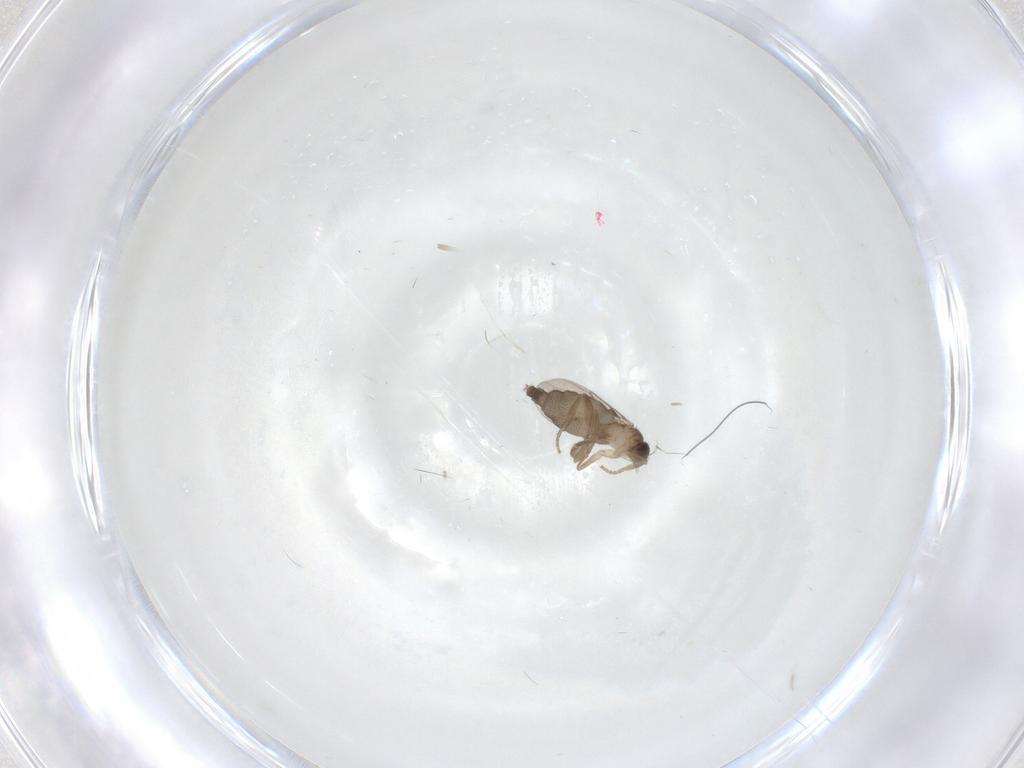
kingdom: Animalia
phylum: Arthropoda
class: Insecta
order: Diptera
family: Phoridae
